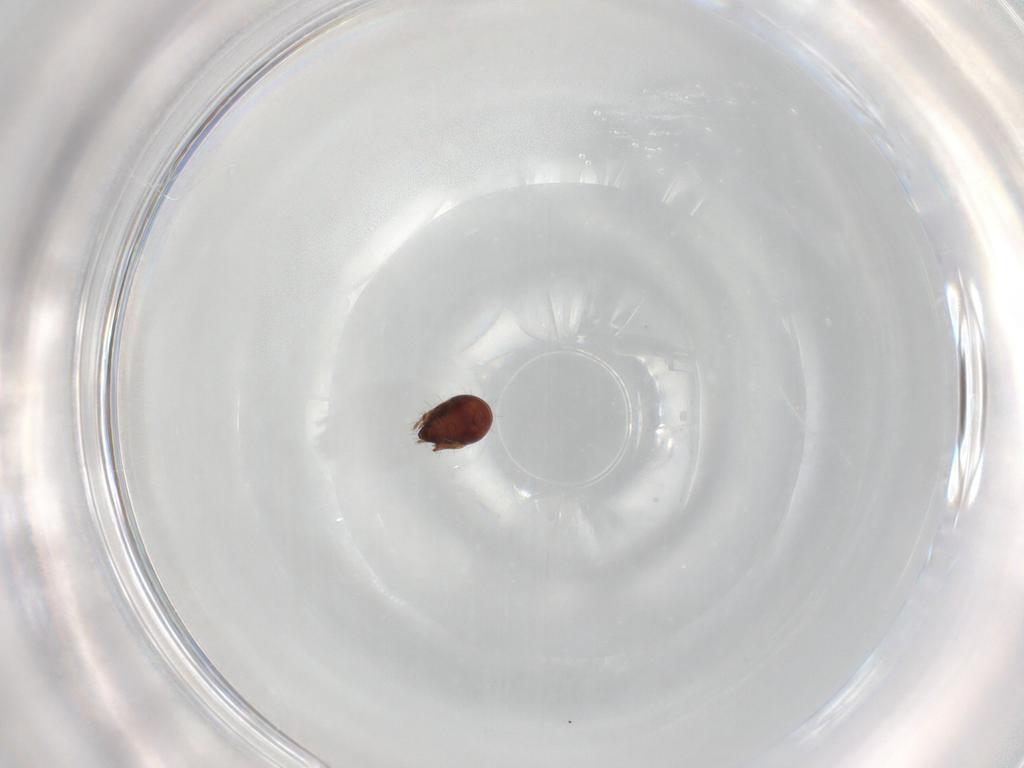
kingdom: Animalia
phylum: Arthropoda
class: Arachnida
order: Sarcoptiformes
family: Humerobatidae
